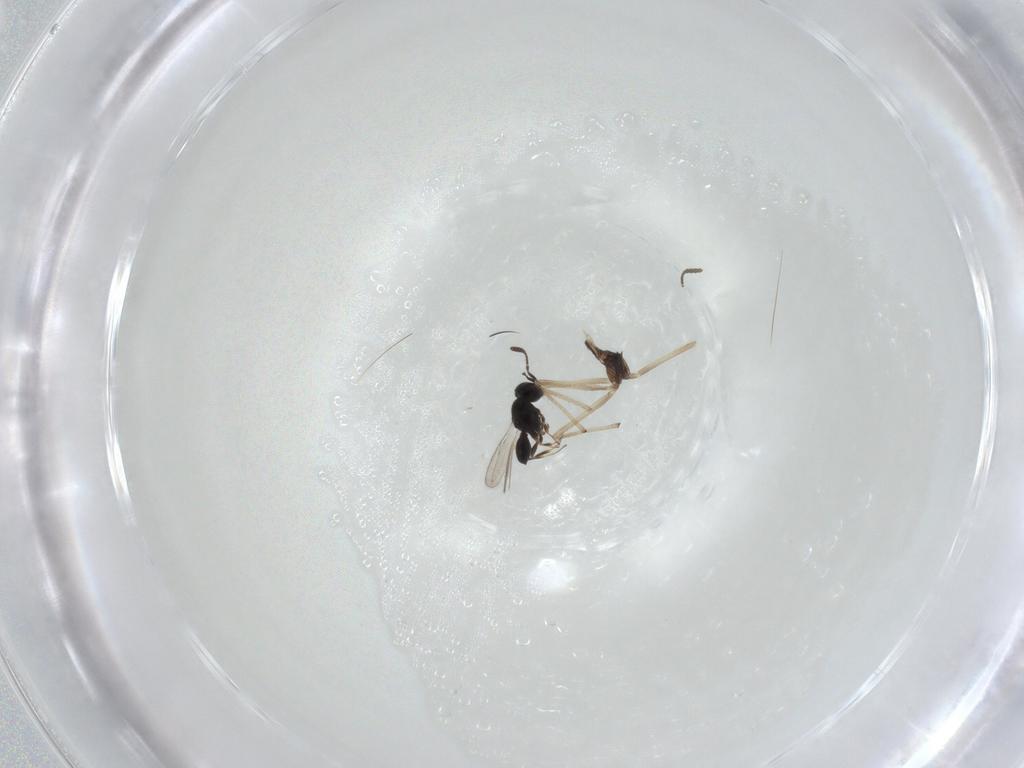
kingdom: Animalia
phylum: Arthropoda
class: Insecta
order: Hymenoptera
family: Scelionidae
